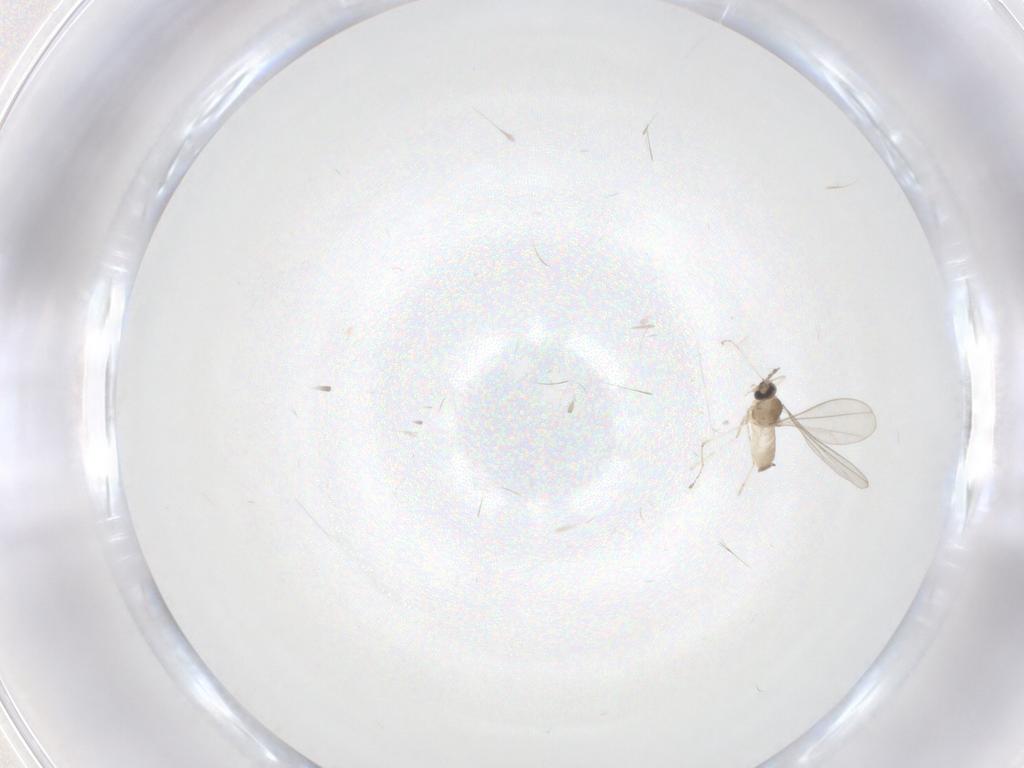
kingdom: Animalia
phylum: Arthropoda
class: Insecta
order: Diptera
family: Cecidomyiidae
